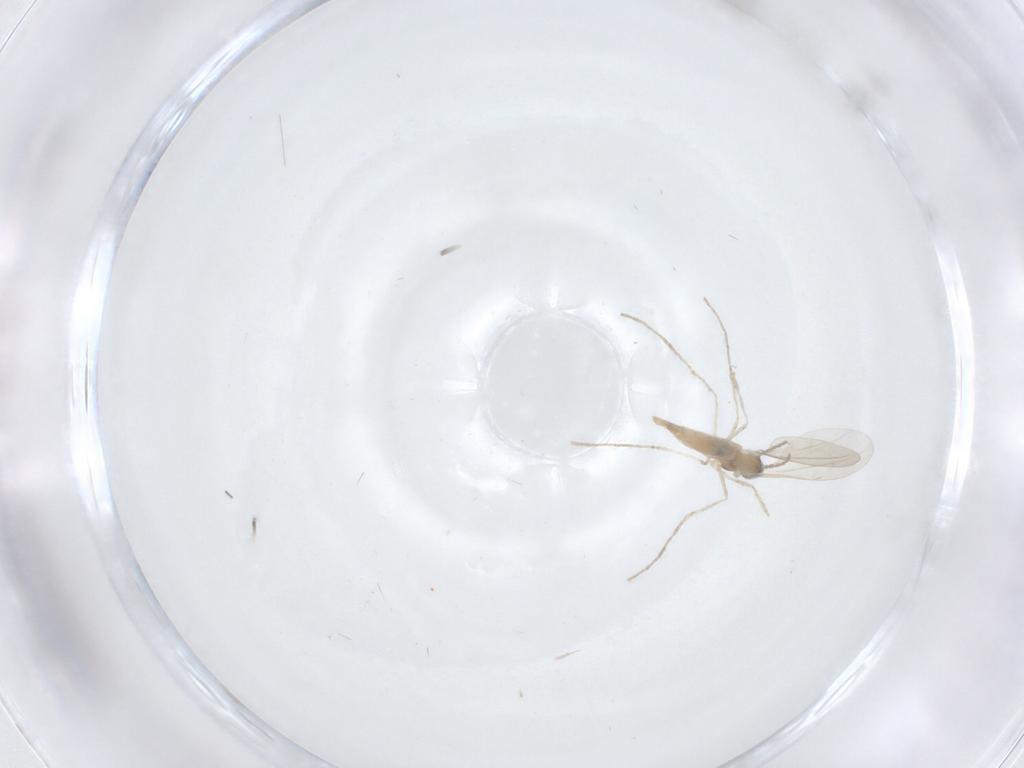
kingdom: Animalia
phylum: Arthropoda
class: Insecta
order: Diptera
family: Cecidomyiidae
